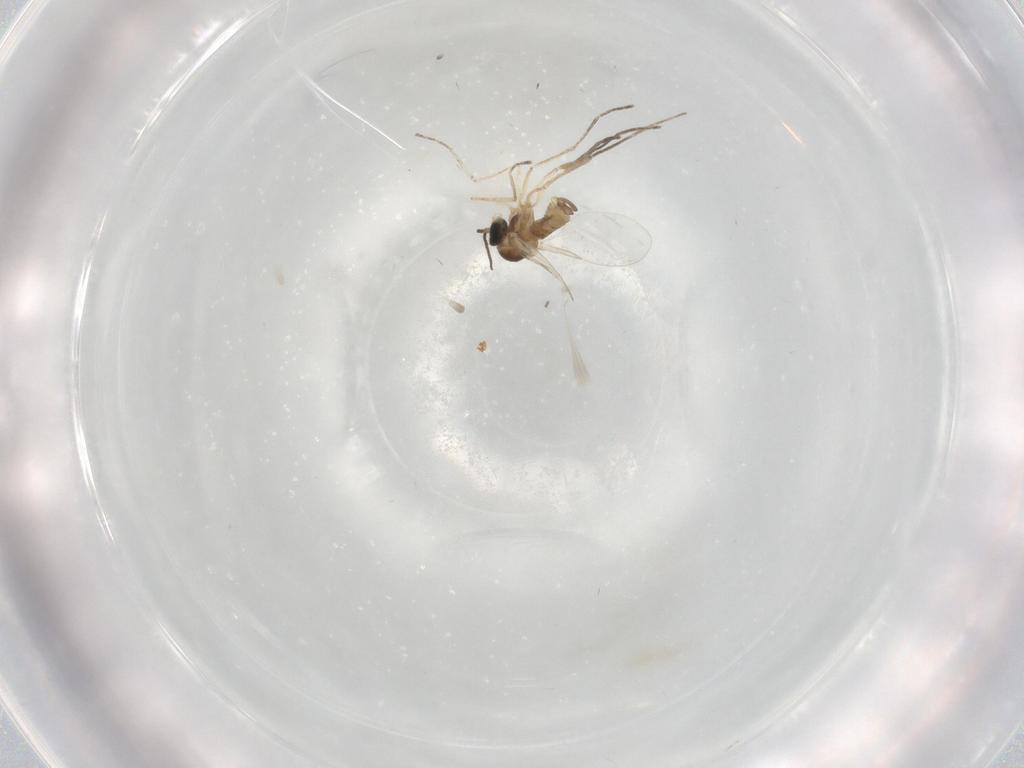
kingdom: Animalia
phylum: Arthropoda
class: Insecta
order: Diptera
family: Cecidomyiidae
